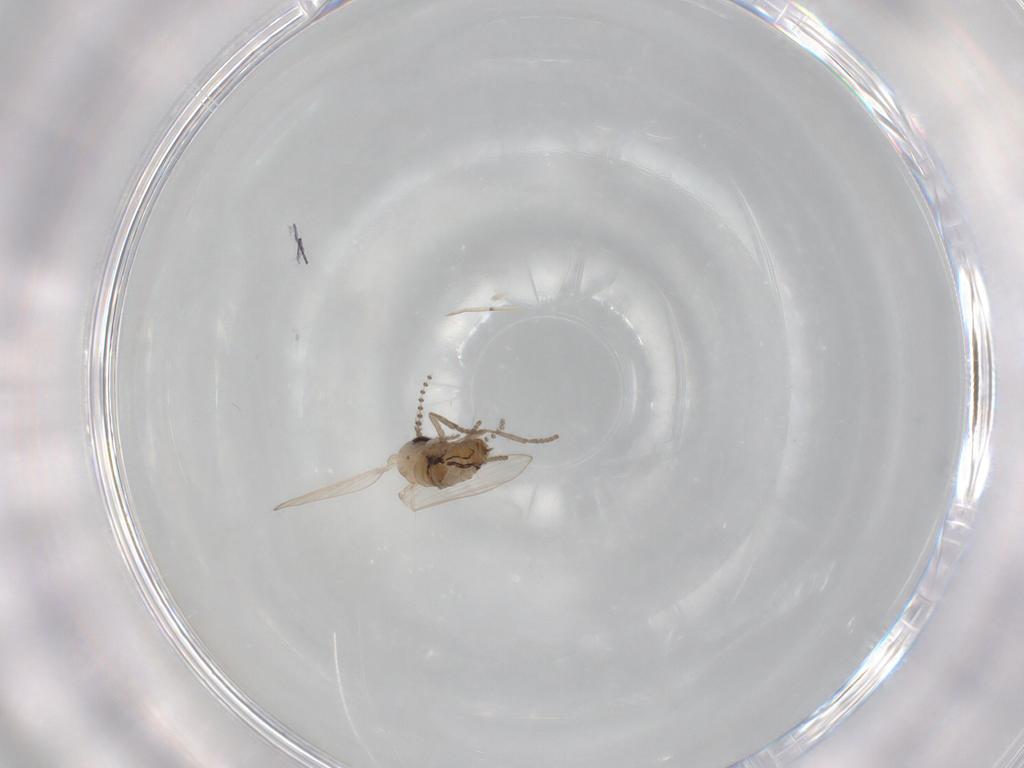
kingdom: Animalia
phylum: Arthropoda
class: Insecta
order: Diptera
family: Psychodidae
